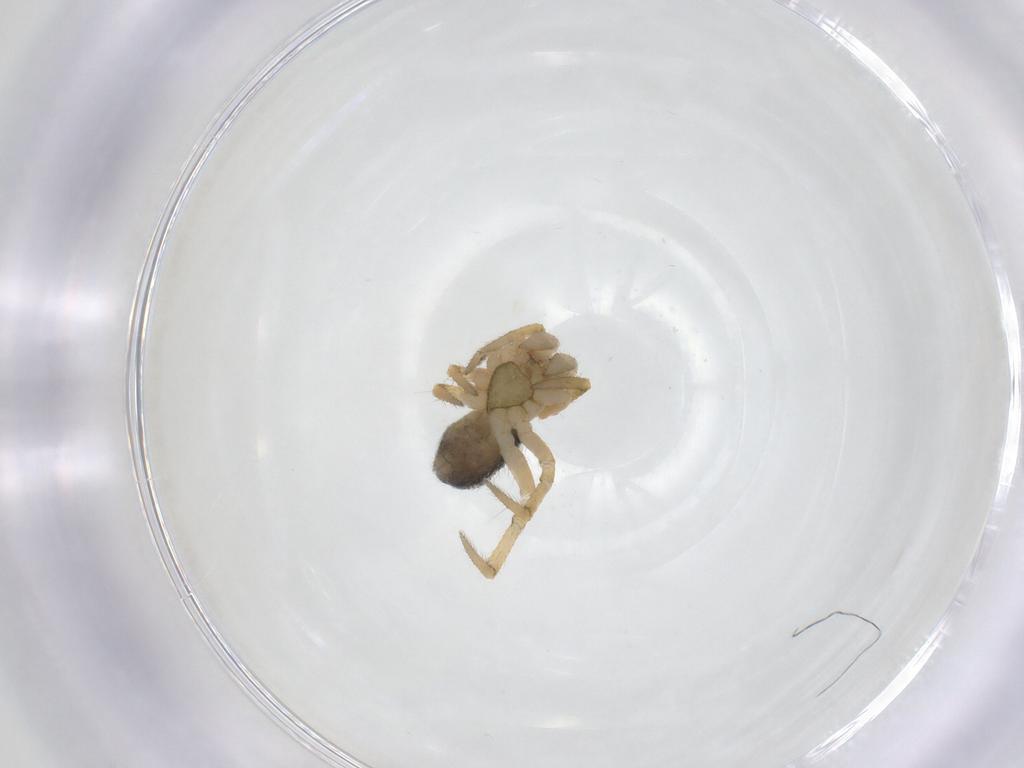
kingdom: Animalia
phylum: Arthropoda
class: Arachnida
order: Araneae
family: Theridiidae
